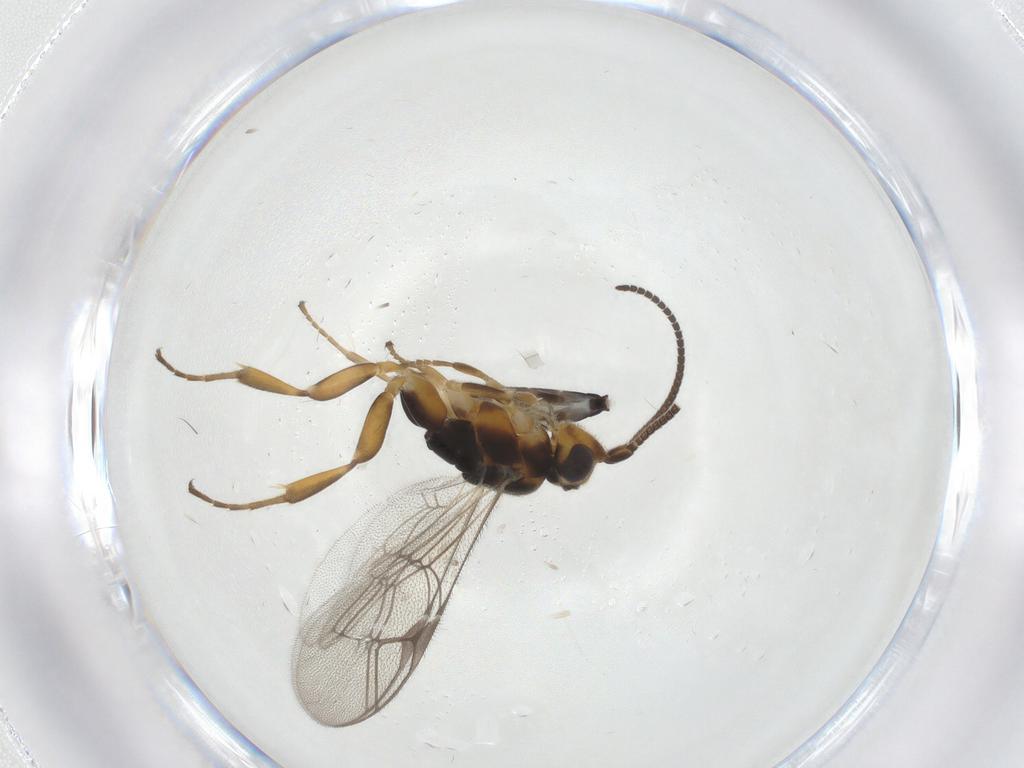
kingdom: Animalia
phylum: Arthropoda
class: Insecta
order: Hymenoptera
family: Ichneumonidae
